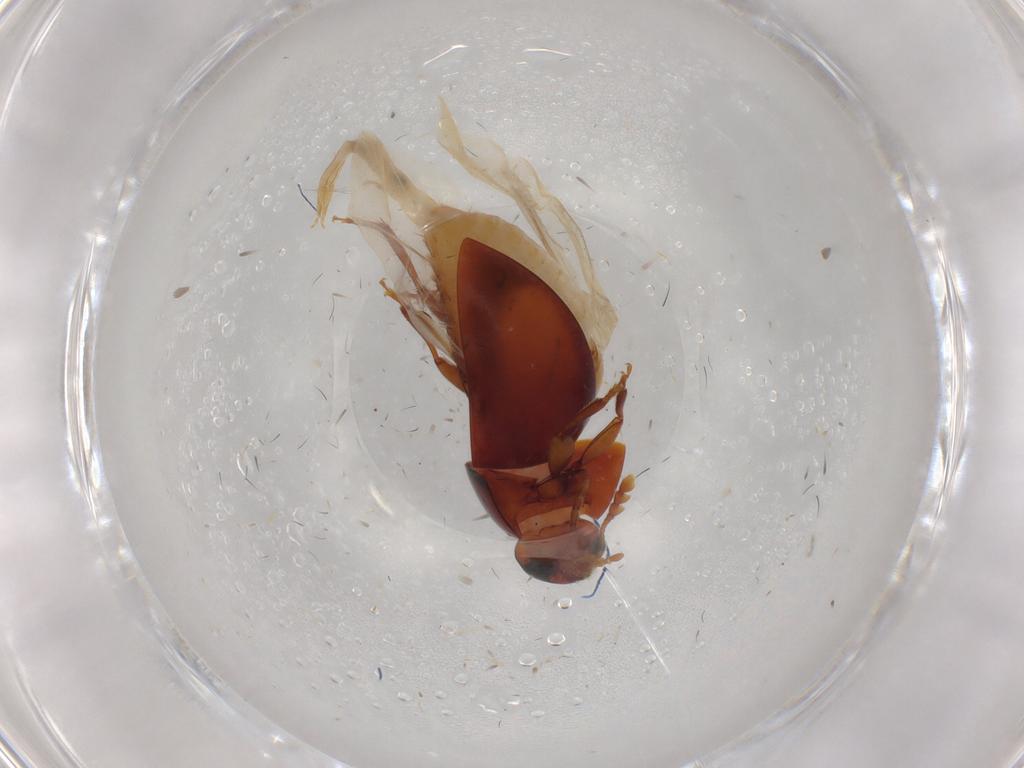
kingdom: Animalia
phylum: Arthropoda
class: Insecta
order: Coleoptera
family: Phalacridae
